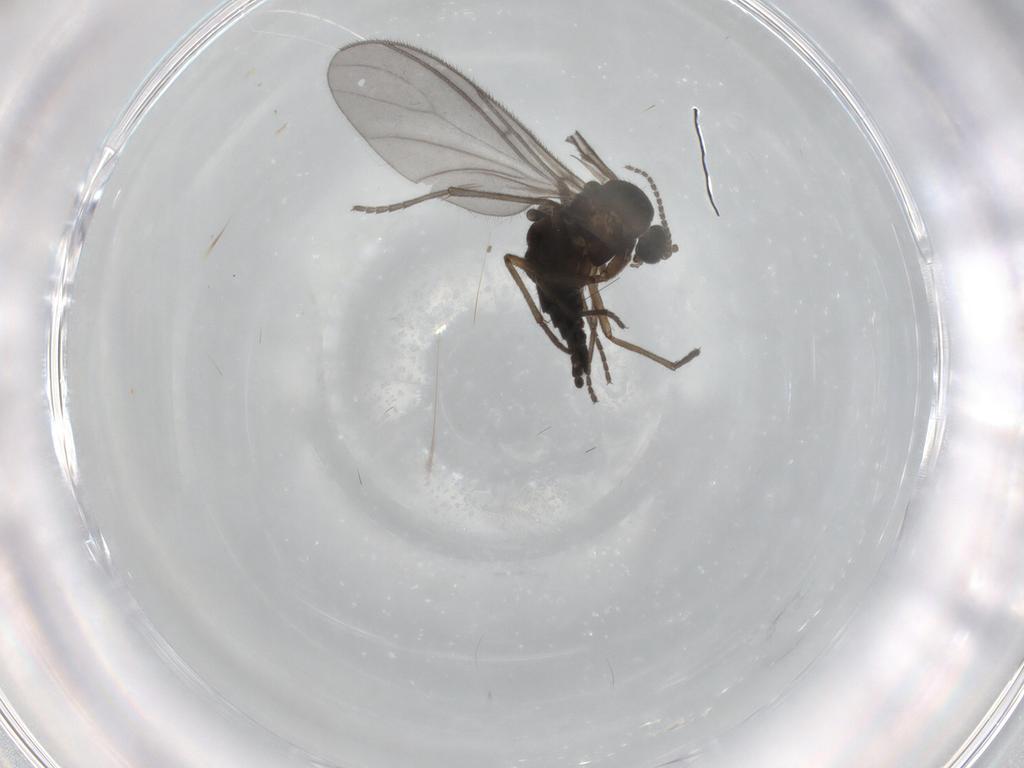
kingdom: Animalia
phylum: Arthropoda
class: Insecta
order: Diptera
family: Sciaridae
